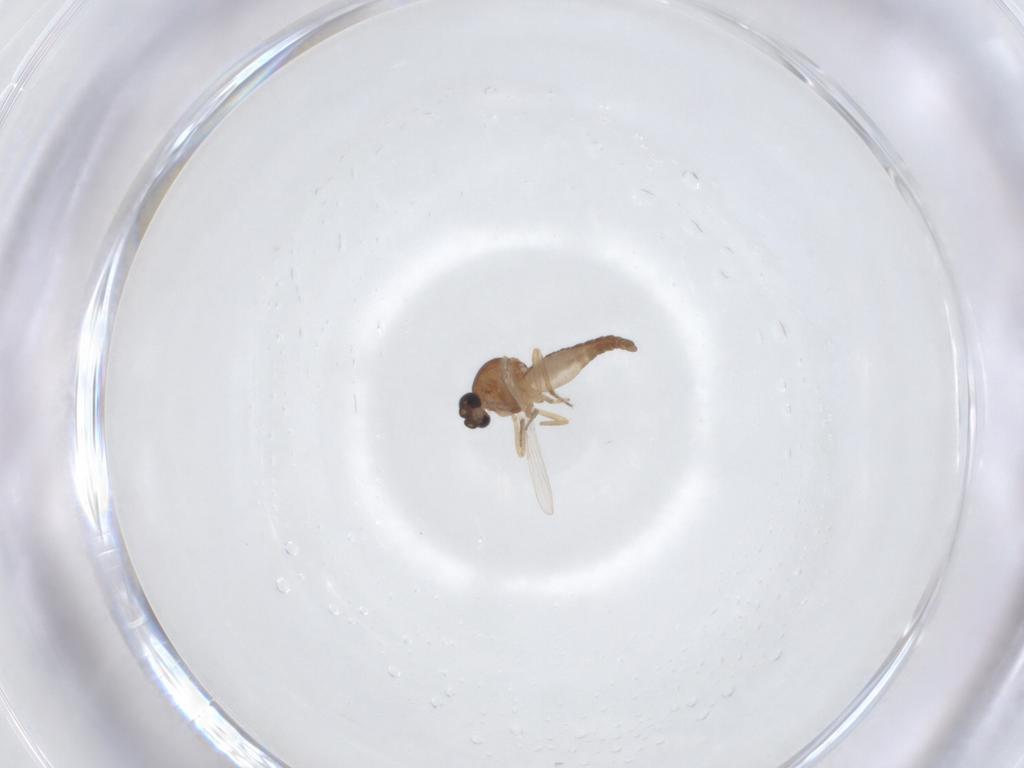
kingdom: Animalia
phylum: Arthropoda
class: Insecta
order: Diptera
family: Ceratopogonidae
